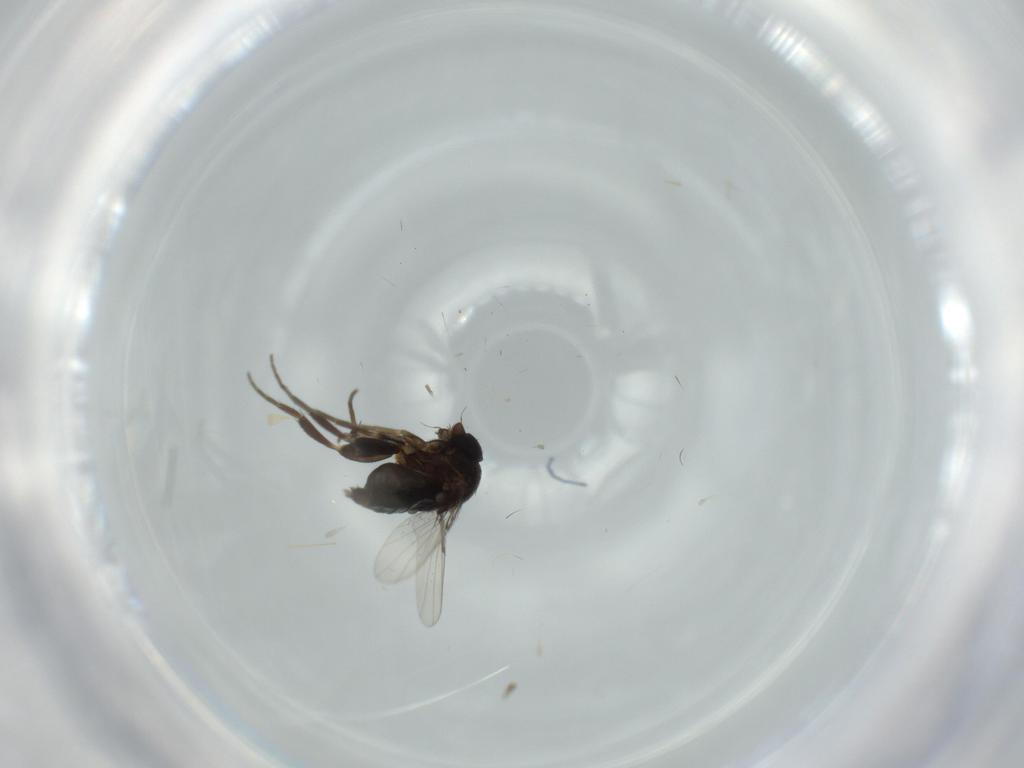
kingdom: Animalia
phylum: Arthropoda
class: Insecta
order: Diptera
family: Phoridae
